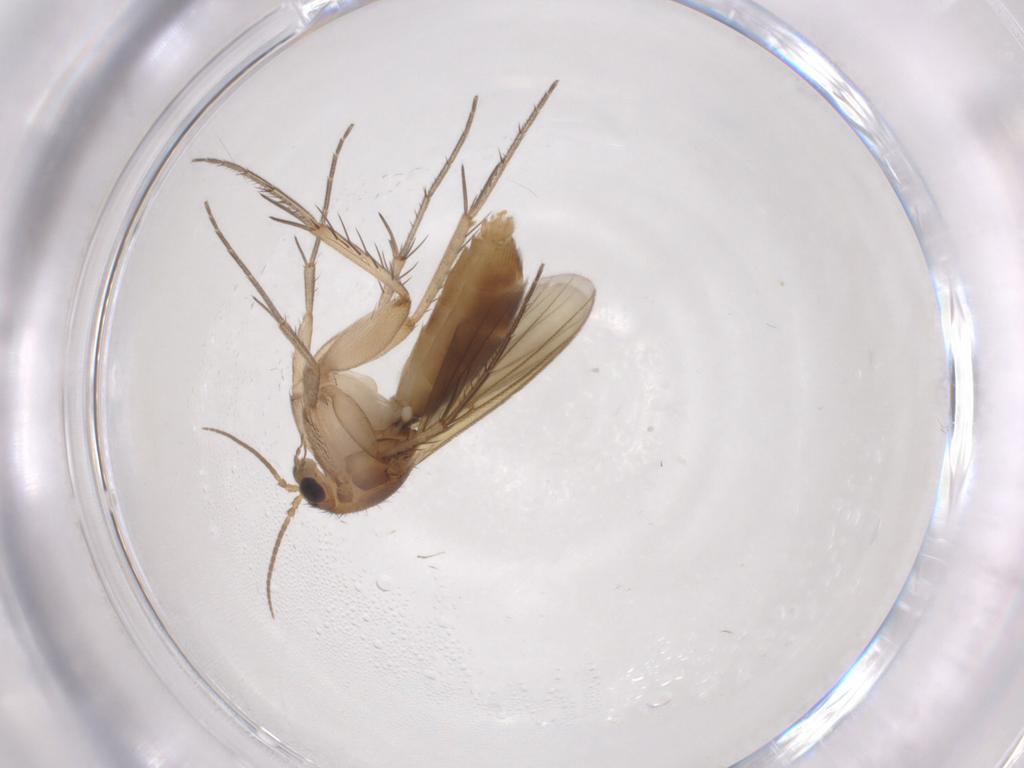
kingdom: Animalia
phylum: Arthropoda
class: Insecta
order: Diptera
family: Mycetophilidae
